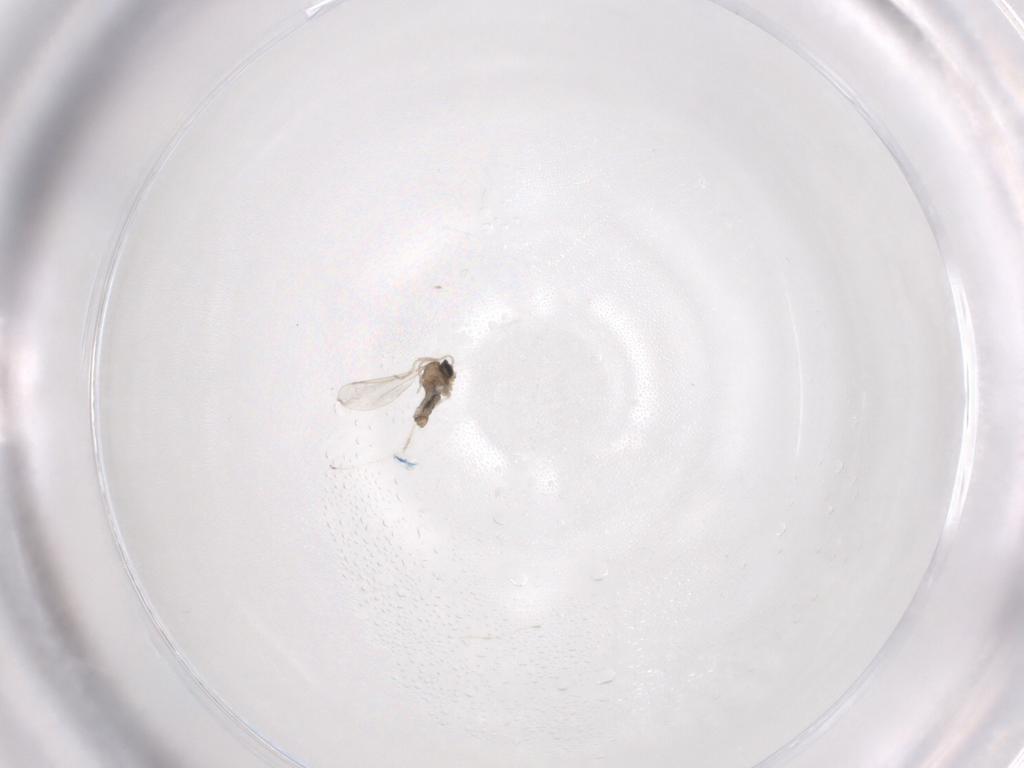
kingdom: Animalia
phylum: Arthropoda
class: Insecta
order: Diptera
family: Cecidomyiidae
